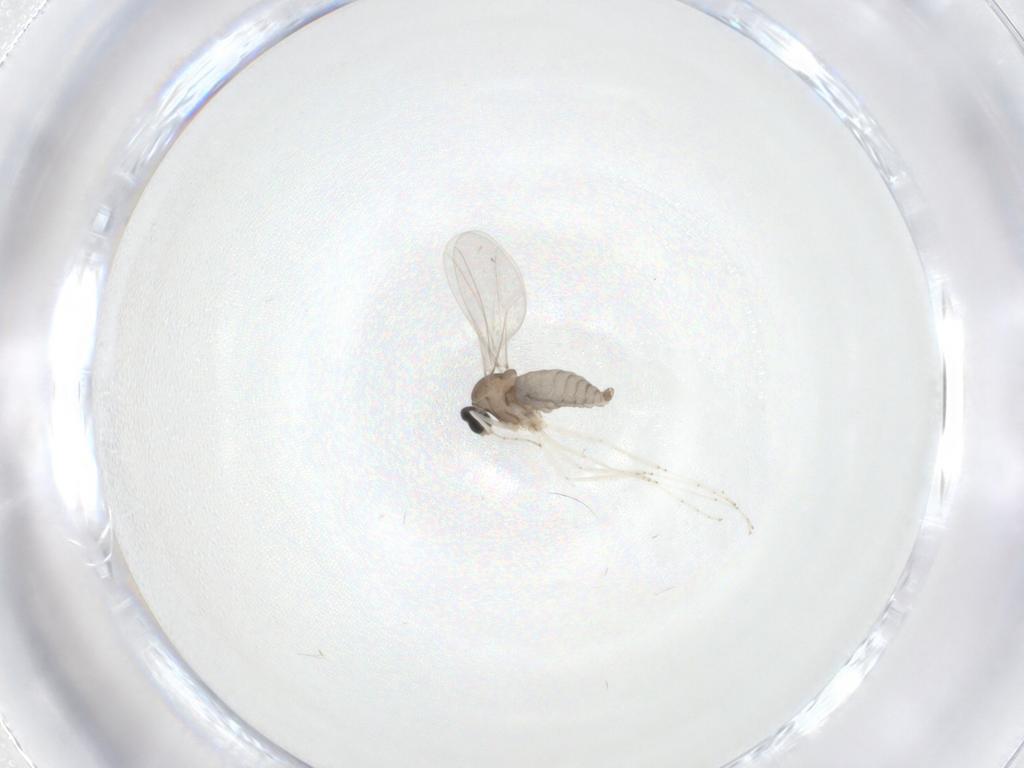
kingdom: Animalia
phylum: Arthropoda
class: Insecta
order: Diptera
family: Cecidomyiidae
